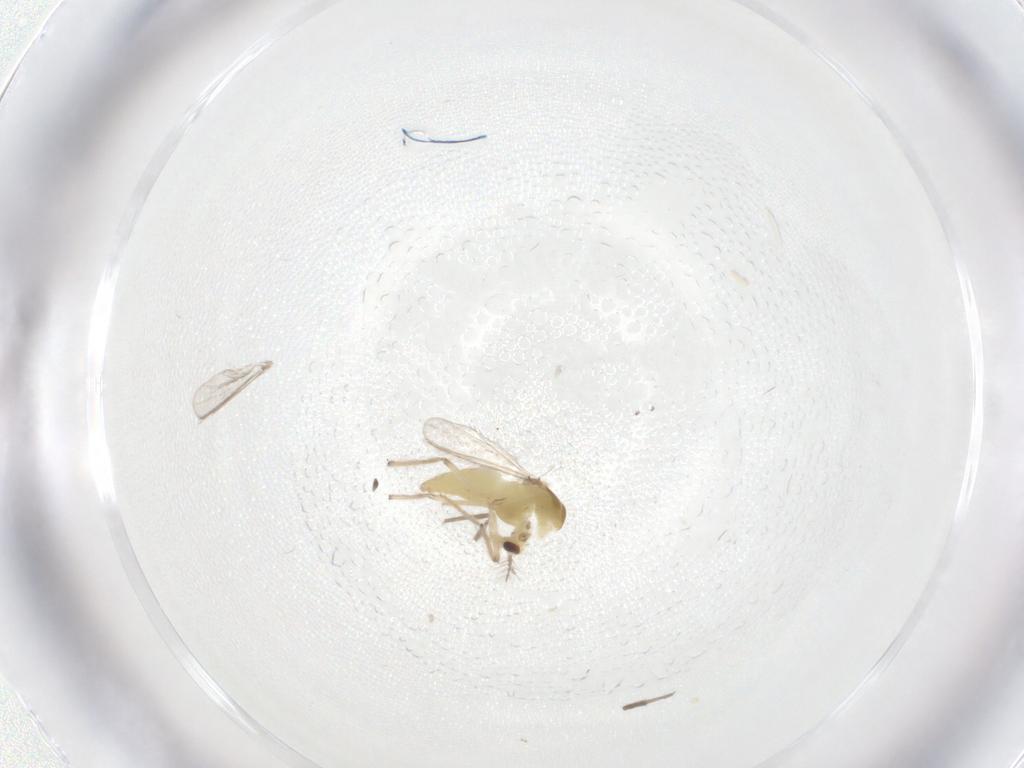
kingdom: Animalia
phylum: Arthropoda
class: Insecta
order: Diptera
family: Chironomidae
